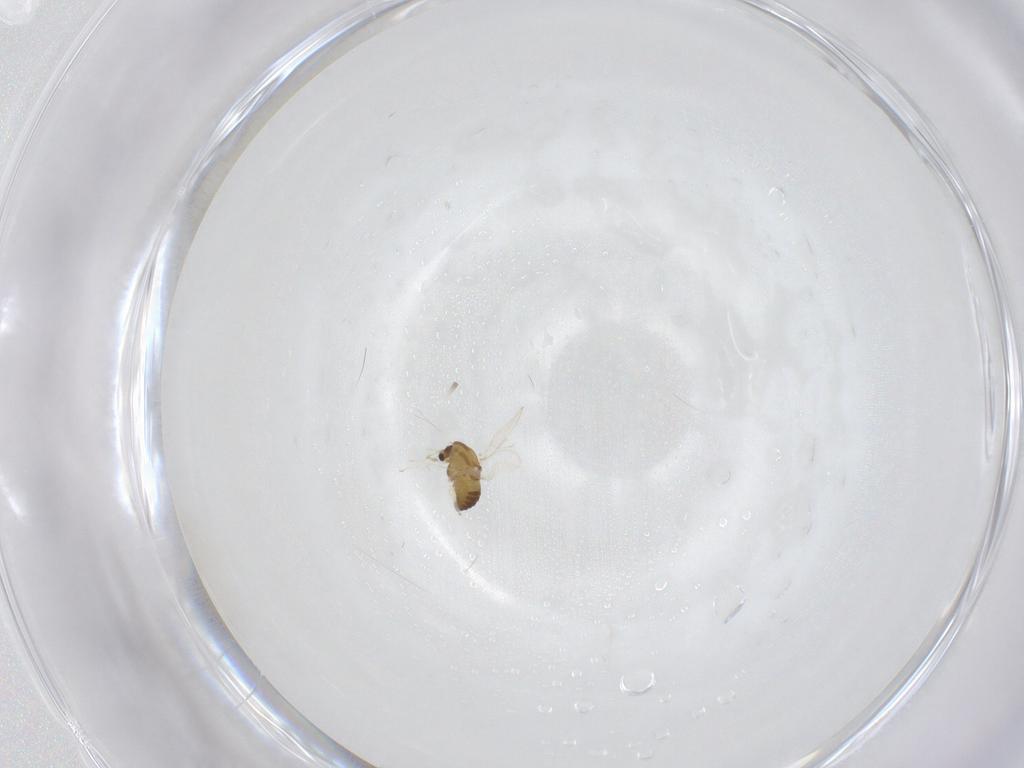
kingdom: Animalia
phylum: Arthropoda
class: Insecta
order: Diptera
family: Chironomidae
